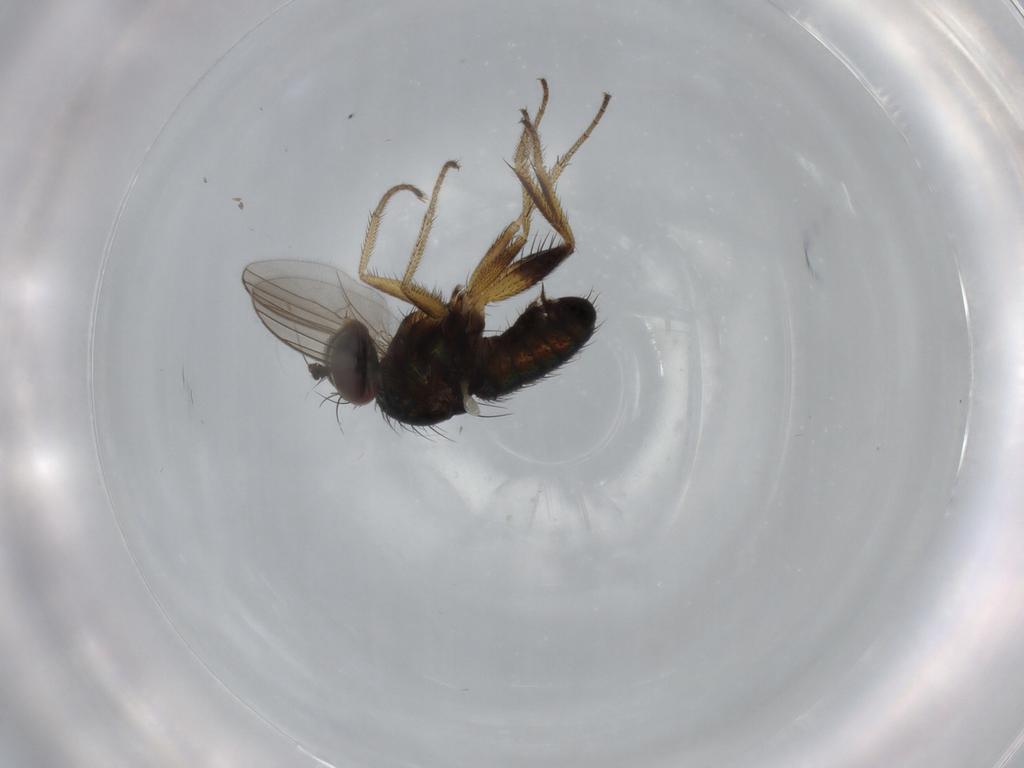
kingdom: Animalia
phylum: Arthropoda
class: Insecta
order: Diptera
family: Dolichopodidae
